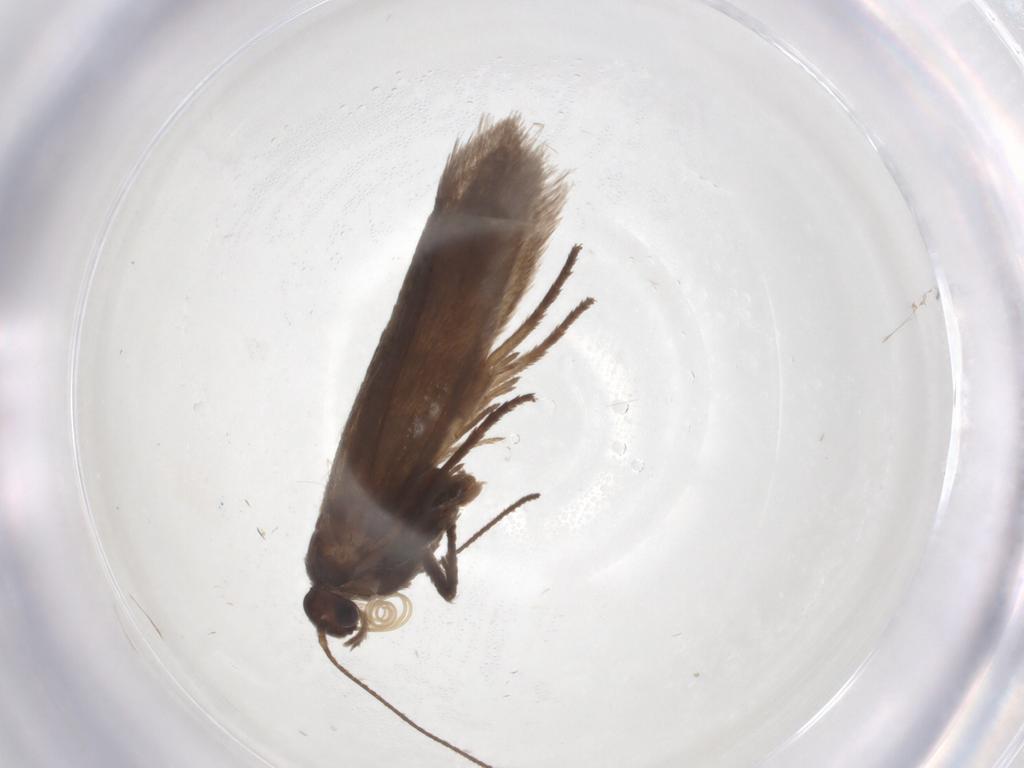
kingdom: Animalia
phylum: Arthropoda
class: Insecta
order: Lepidoptera
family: Limacodidae
